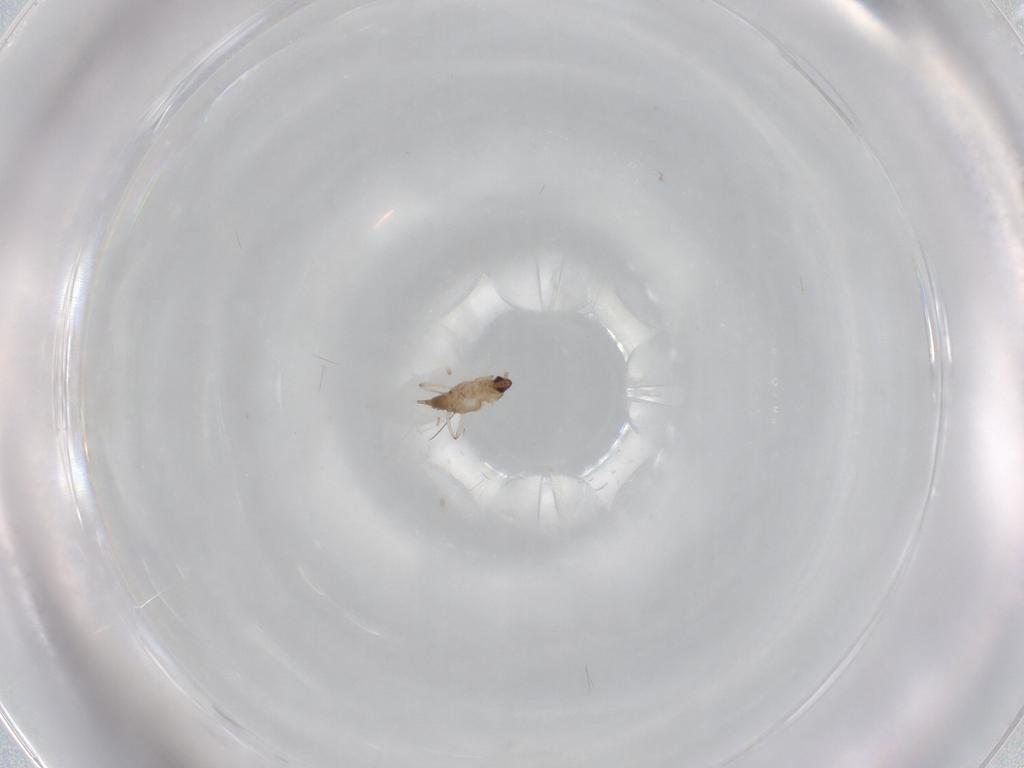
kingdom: Animalia
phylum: Arthropoda
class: Insecta
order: Diptera
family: Cecidomyiidae
